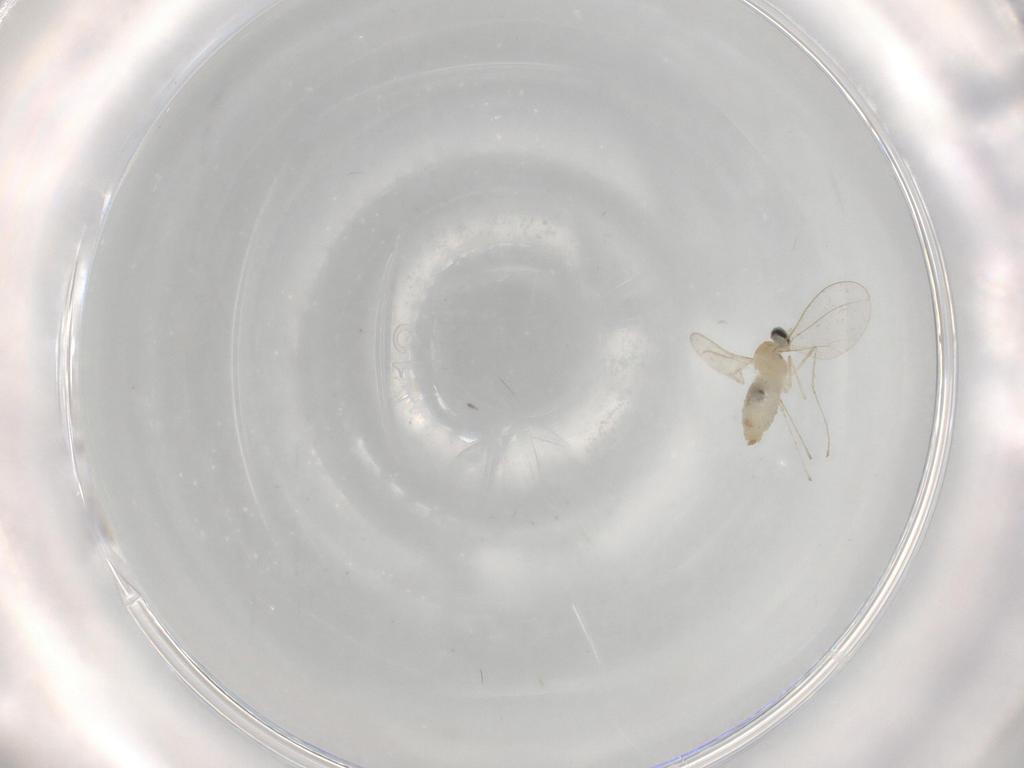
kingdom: Animalia
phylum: Arthropoda
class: Insecta
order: Diptera
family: Cecidomyiidae
